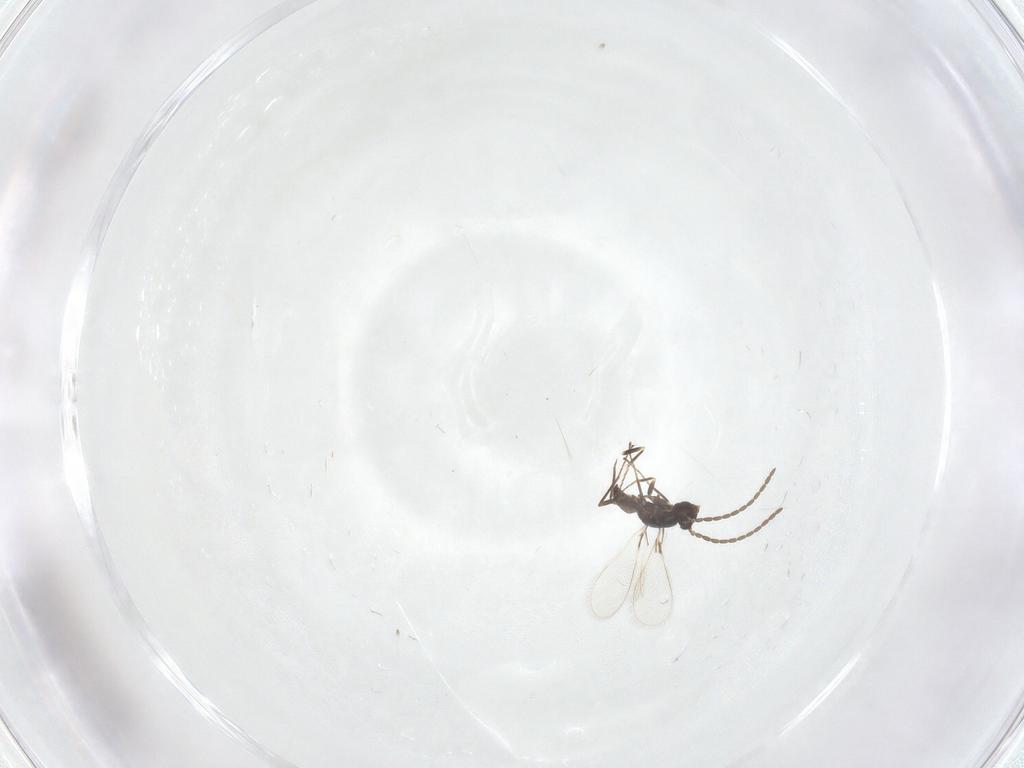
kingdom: Animalia
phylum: Arthropoda
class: Insecta
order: Hymenoptera
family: Mymaridae
